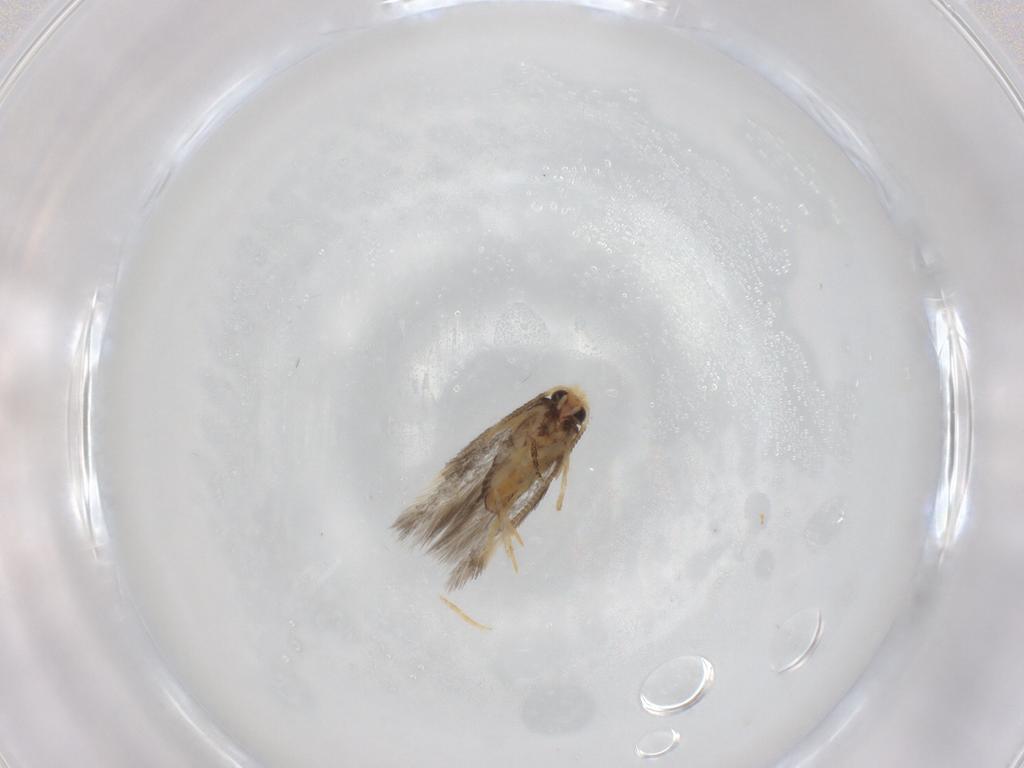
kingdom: Animalia
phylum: Arthropoda
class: Insecta
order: Lepidoptera
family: Nepticulidae
